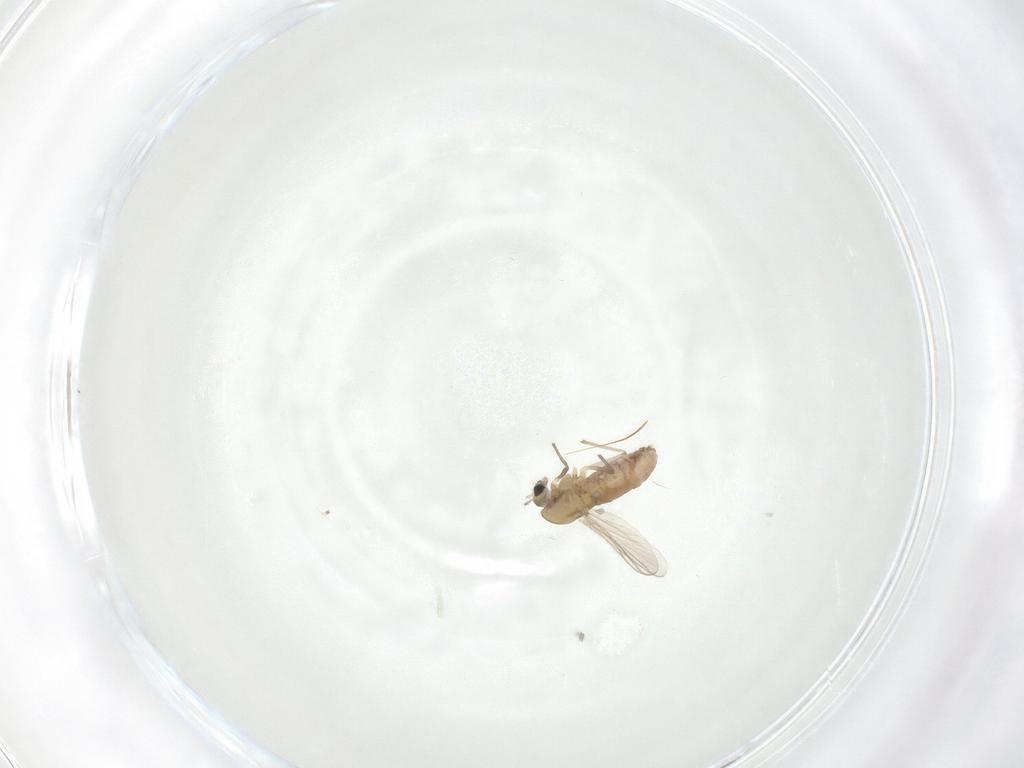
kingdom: Animalia
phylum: Arthropoda
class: Insecta
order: Diptera
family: Chironomidae
